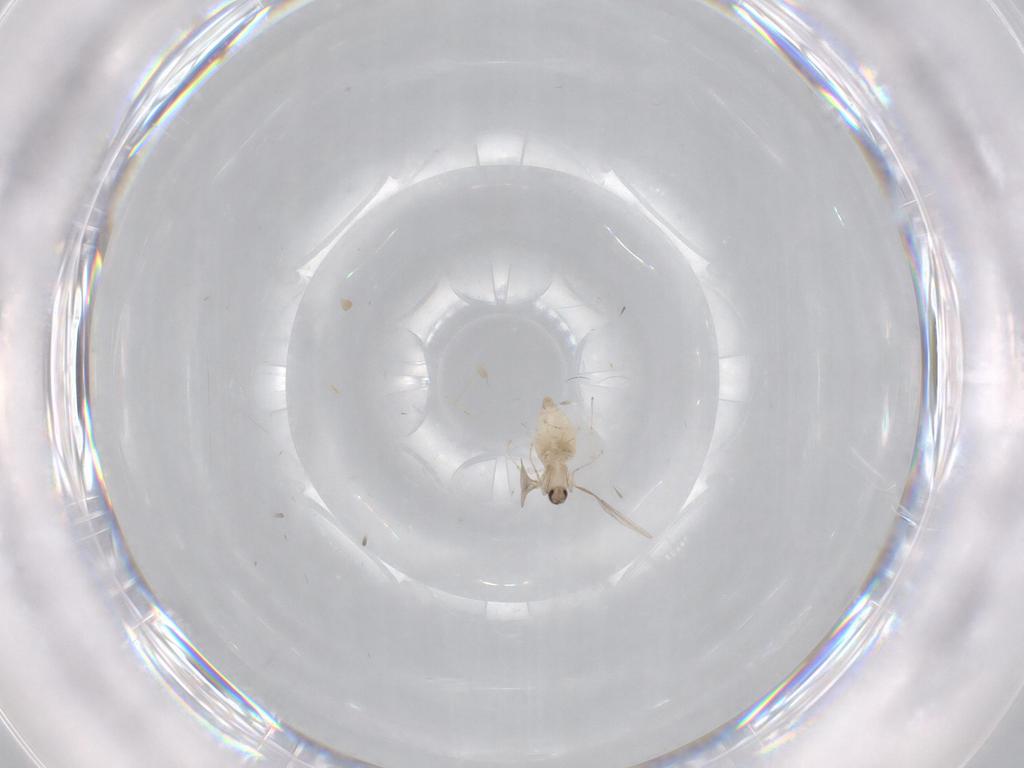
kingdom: Animalia
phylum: Arthropoda
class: Insecta
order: Diptera
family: Cecidomyiidae
